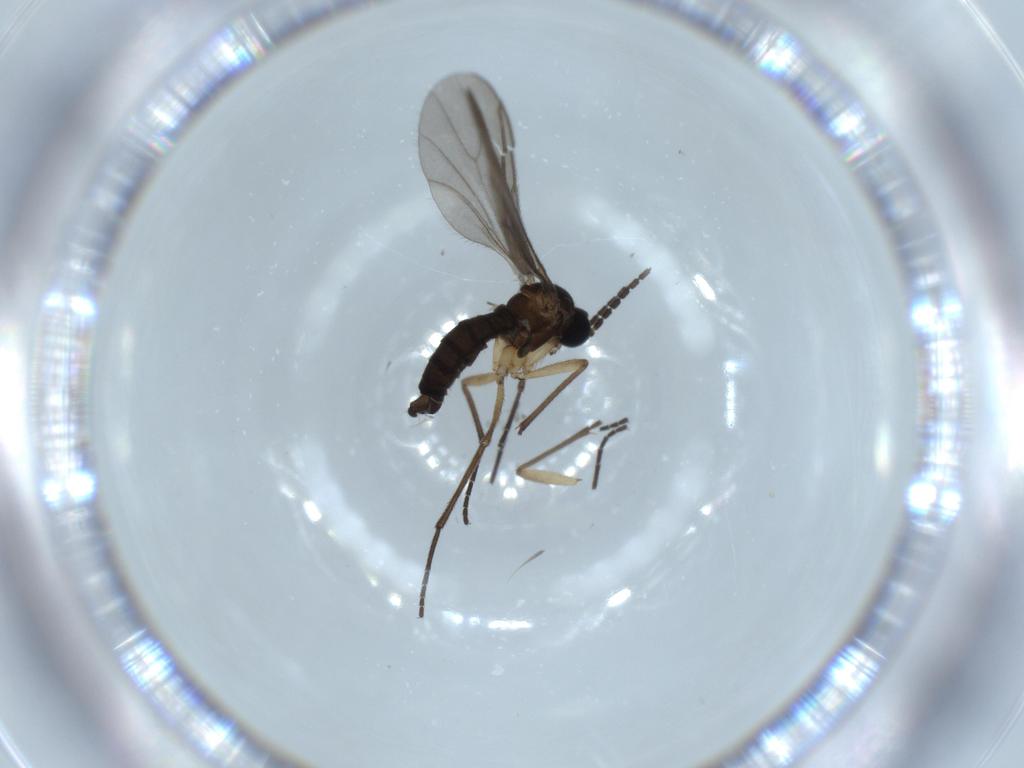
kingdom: Animalia
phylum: Arthropoda
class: Insecta
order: Diptera
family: Sciaridae
